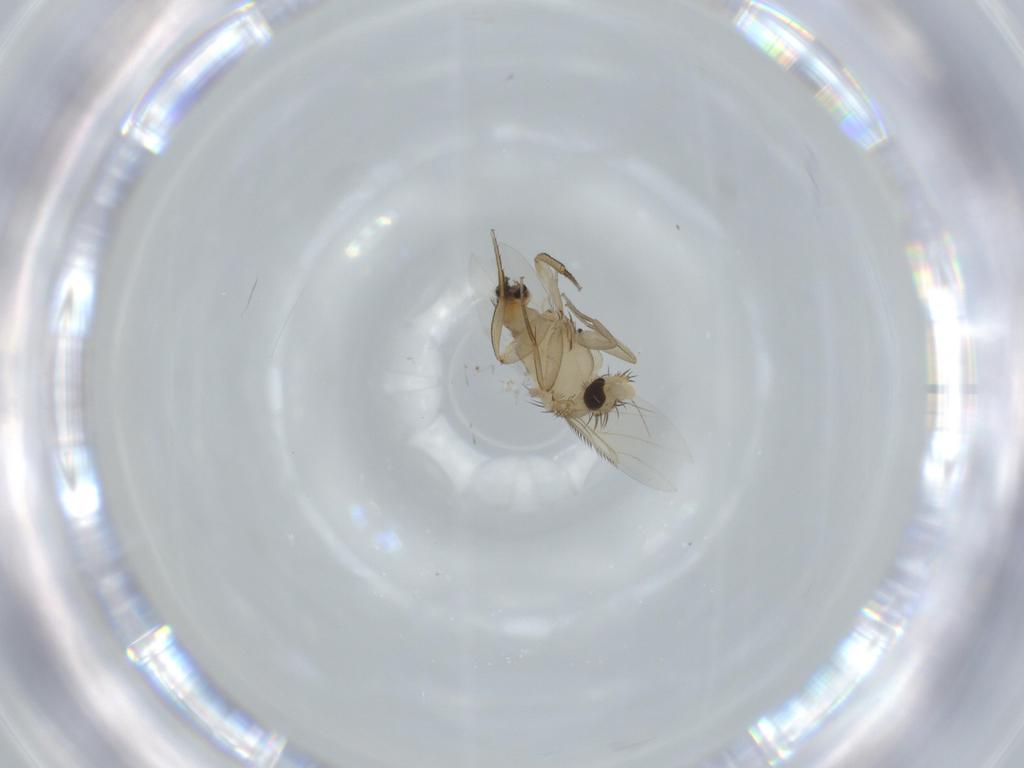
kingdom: Animalia
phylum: Arthropoda
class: Insecta
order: Diptera
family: Phoridae
